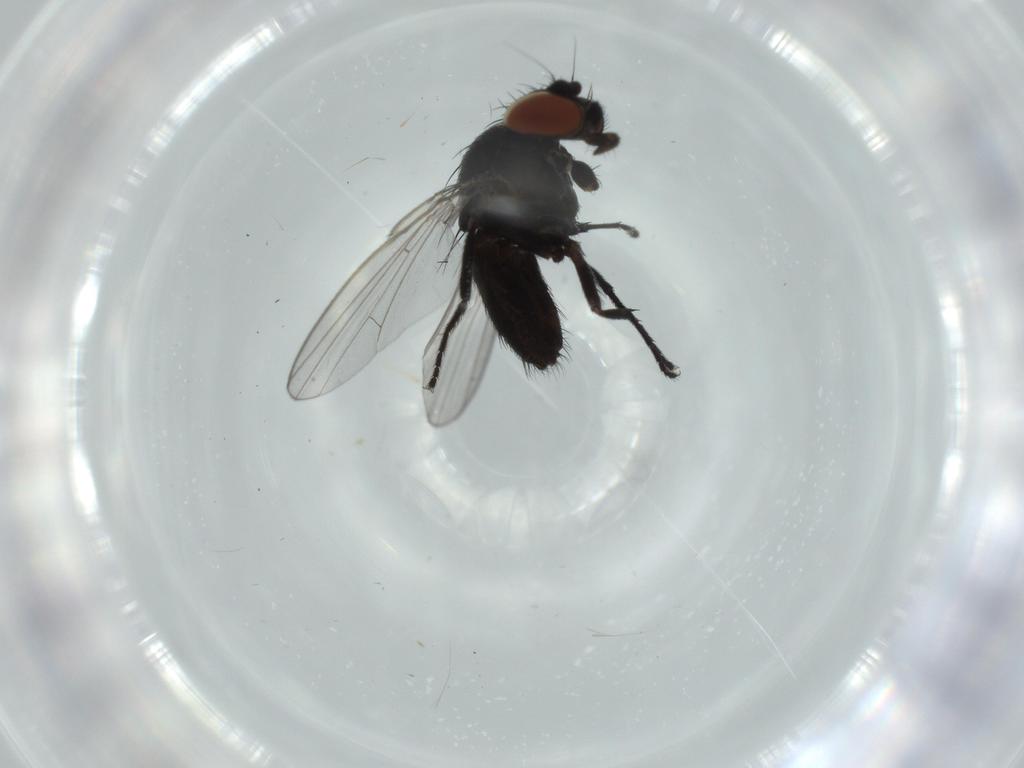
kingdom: Animalia
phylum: Arthropoda
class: Insecta
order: Diptera
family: Milichiidae
